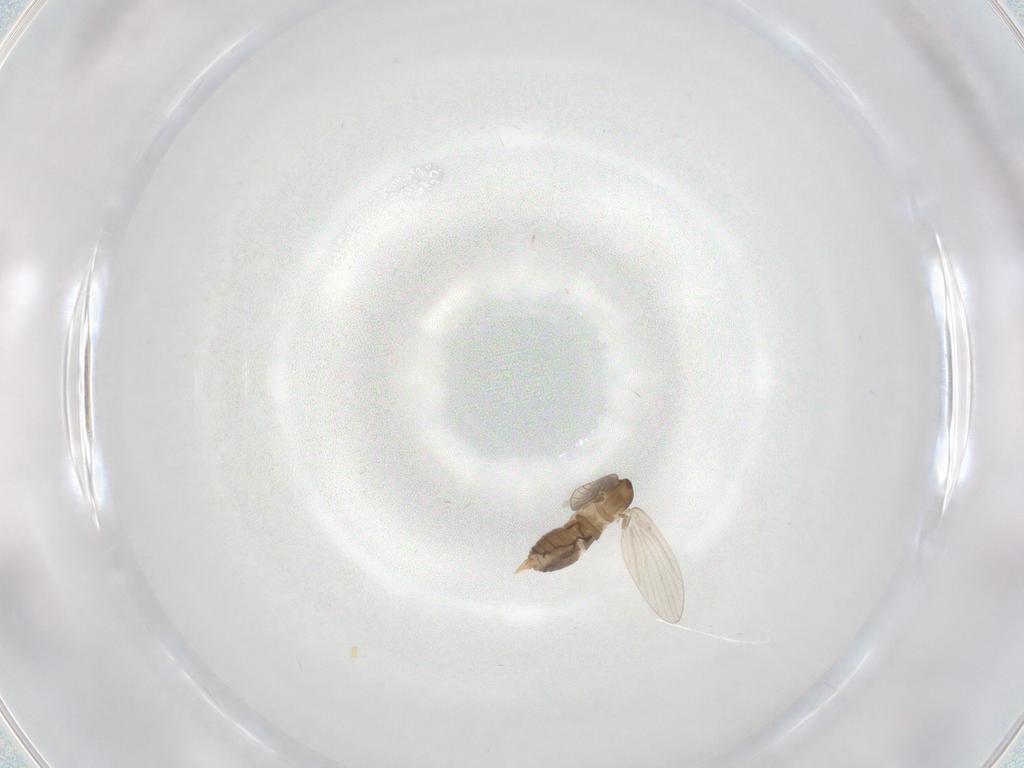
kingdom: Animalia
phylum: Arthropoda
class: Insecta
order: Diptera
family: Psychodidae
